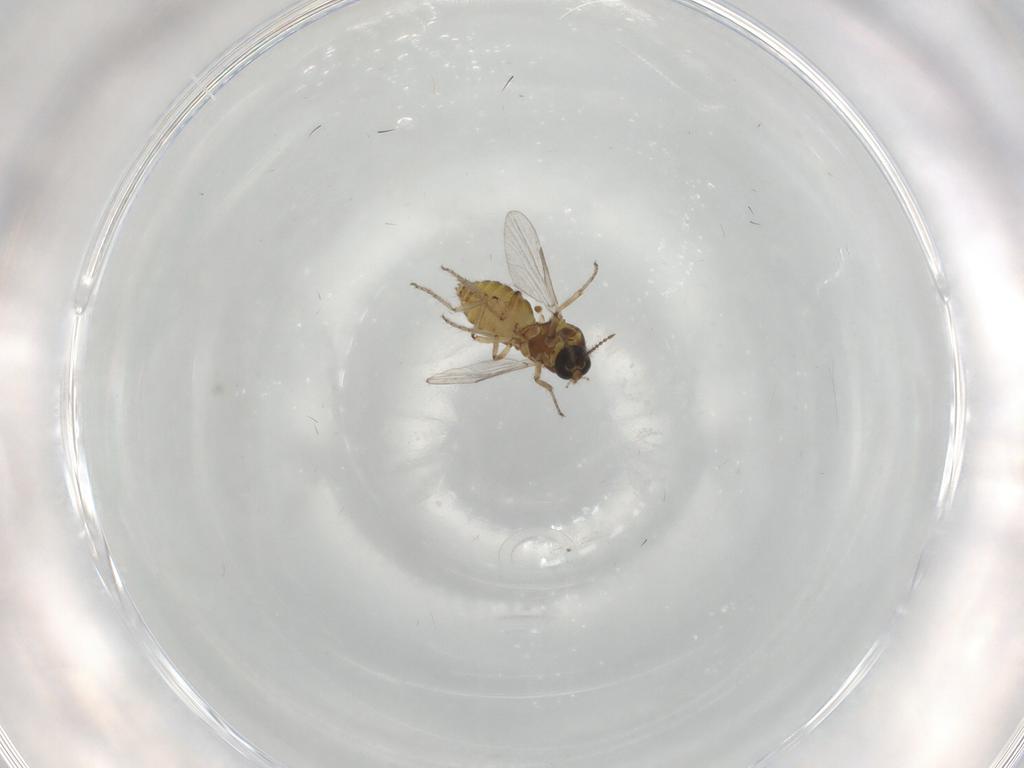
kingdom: Animalia
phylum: Arthropoda
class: Insecta
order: Diptera
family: Ceratopogonidae
